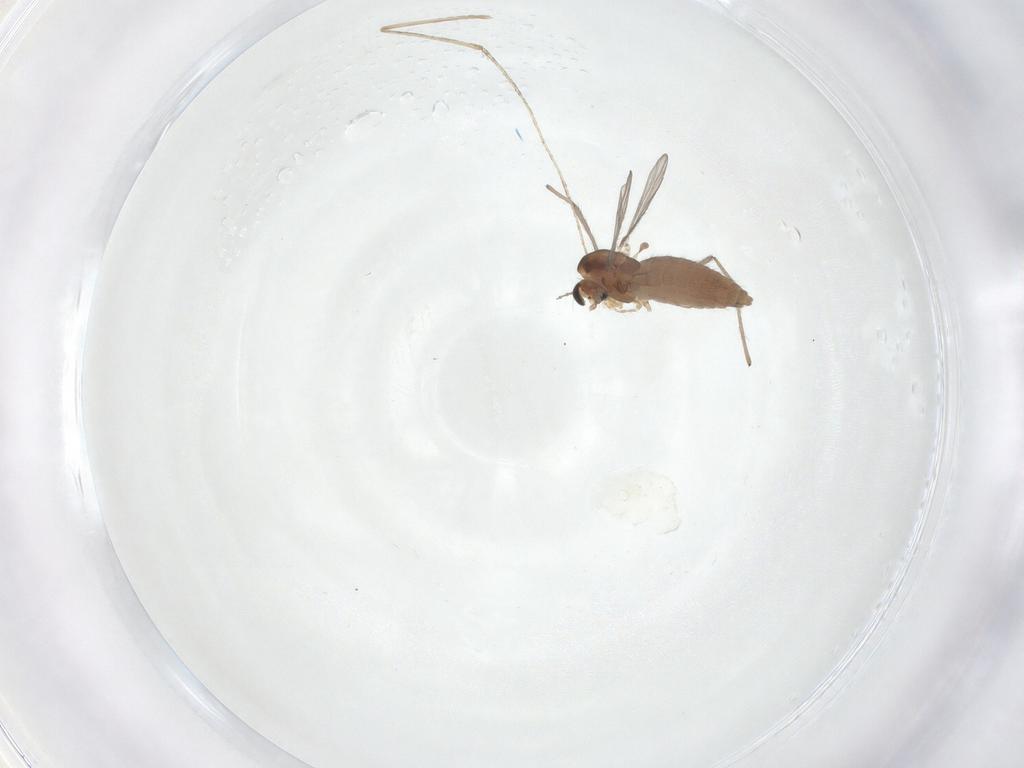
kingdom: Animalia
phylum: Arthropoda
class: Insecta
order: Diptera
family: Chironomidae
